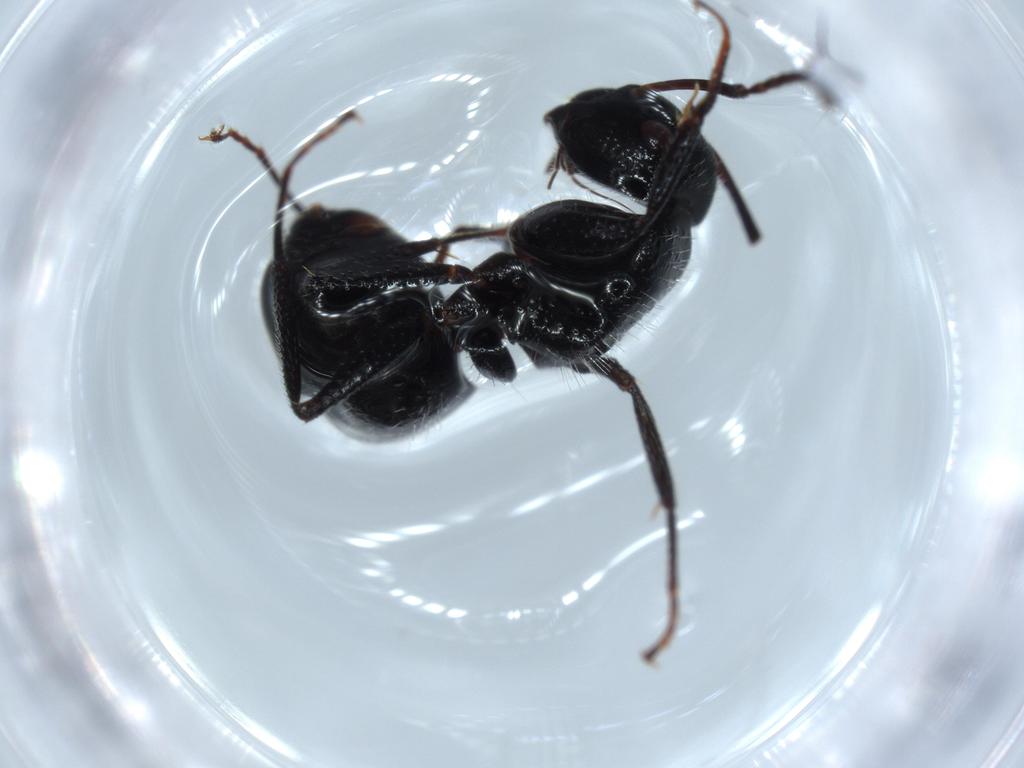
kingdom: Animalia
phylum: Arthropoda
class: Insecta
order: Hymenoptera
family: Formicidae
